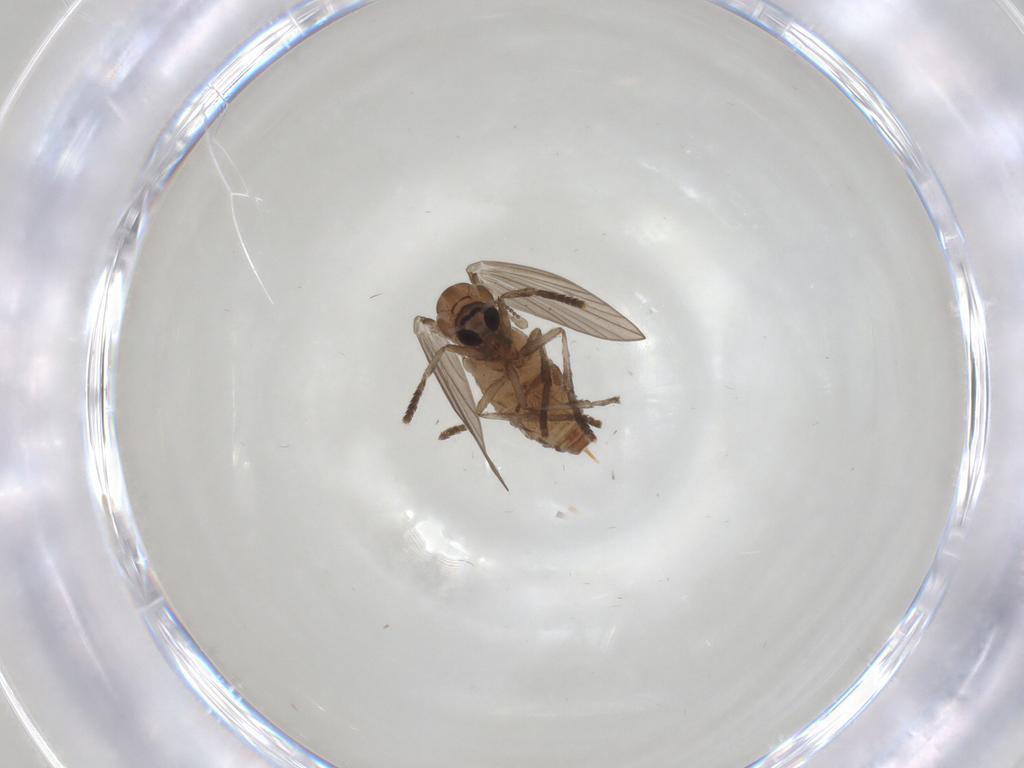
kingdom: Animalia
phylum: Arthropoda
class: Insecta
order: Diptera
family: Psychodidae
